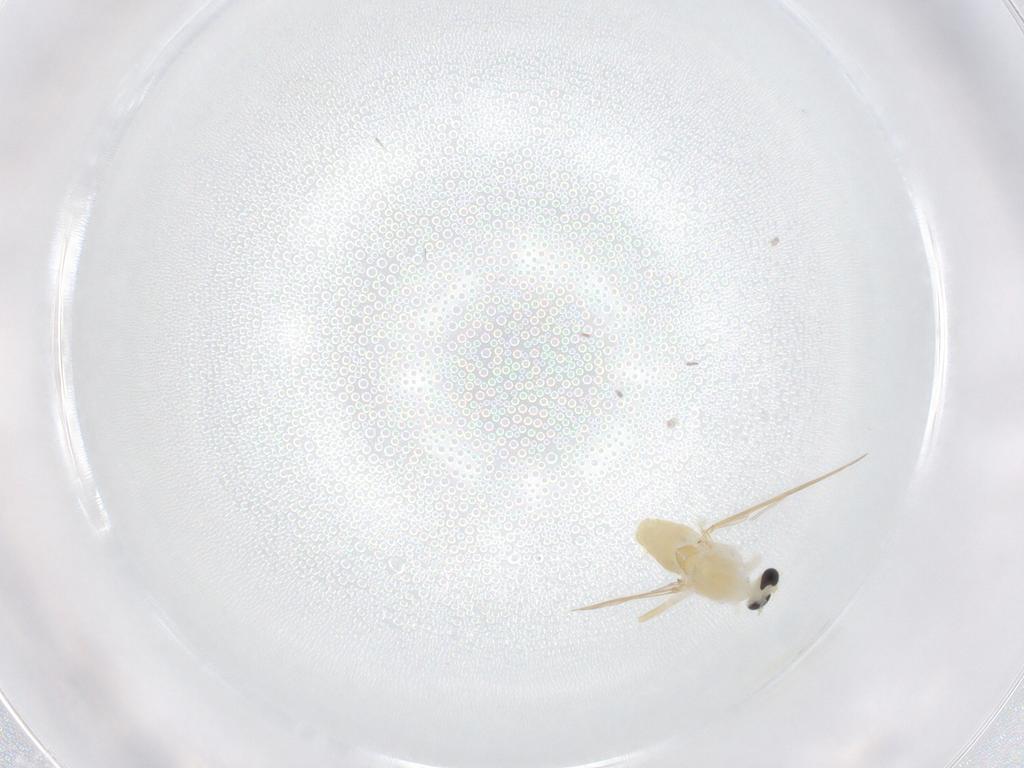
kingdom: Animalia
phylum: Arthropoda
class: Insecta
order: Diptera
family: Chironomidae
